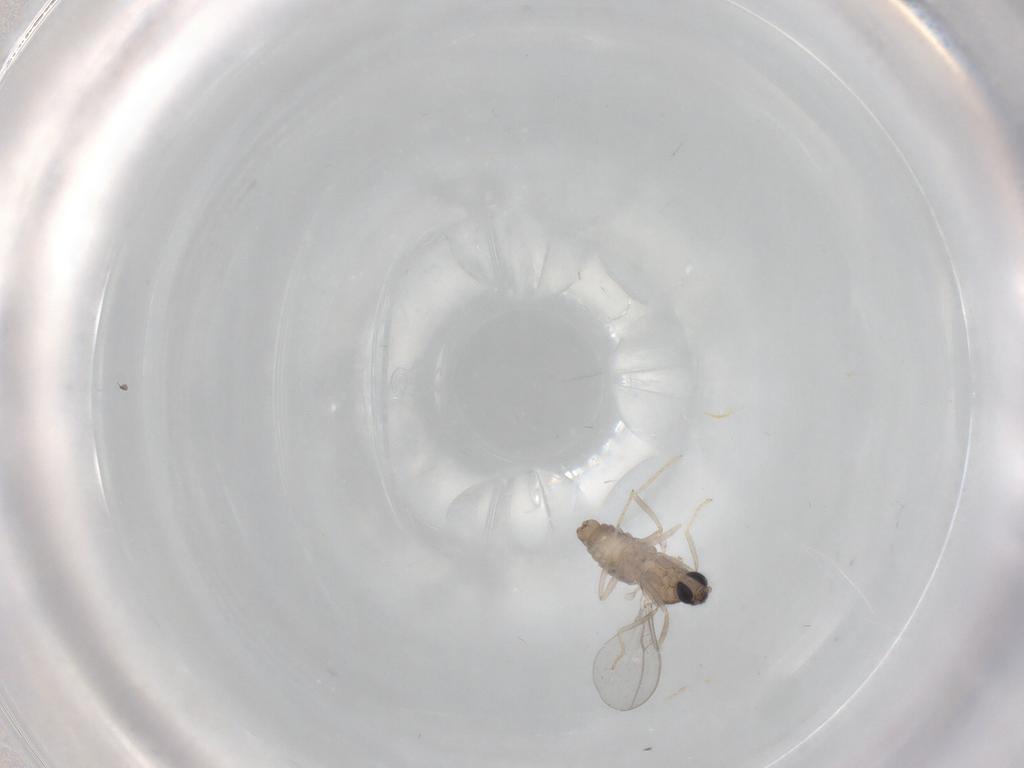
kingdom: Animalia
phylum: Arthropoda
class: Insecta
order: Diptera
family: Cecidomyiidae
